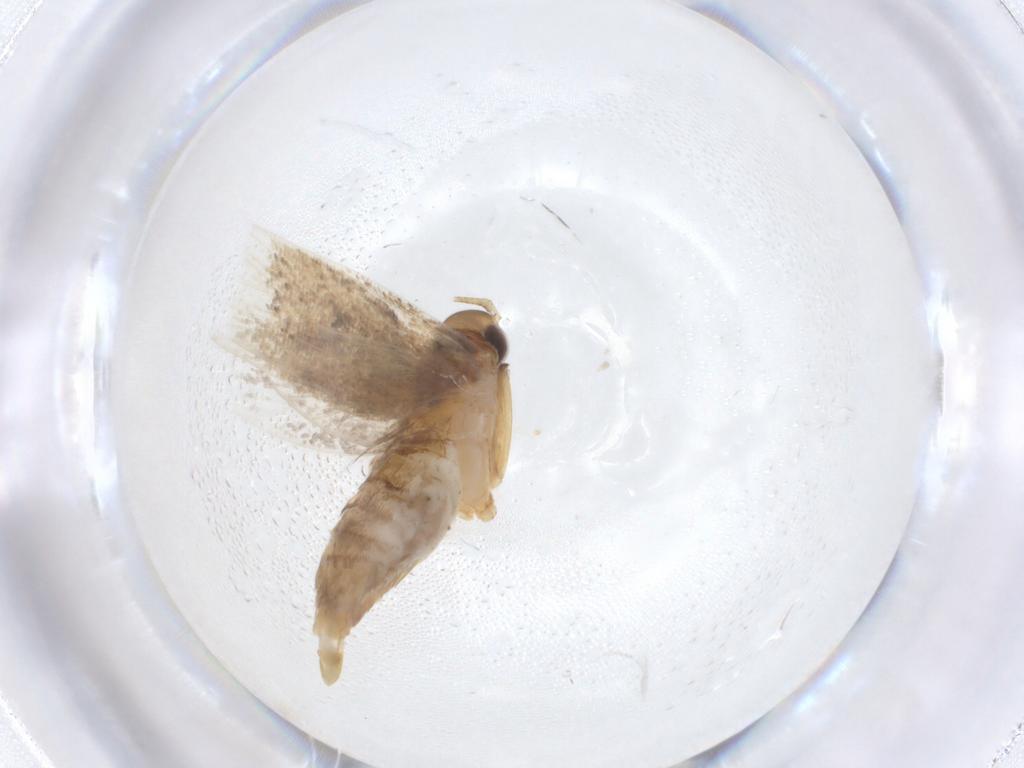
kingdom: Animalia
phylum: Arthropoda
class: Insecta
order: Lepidoptera
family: Oecophoridae
